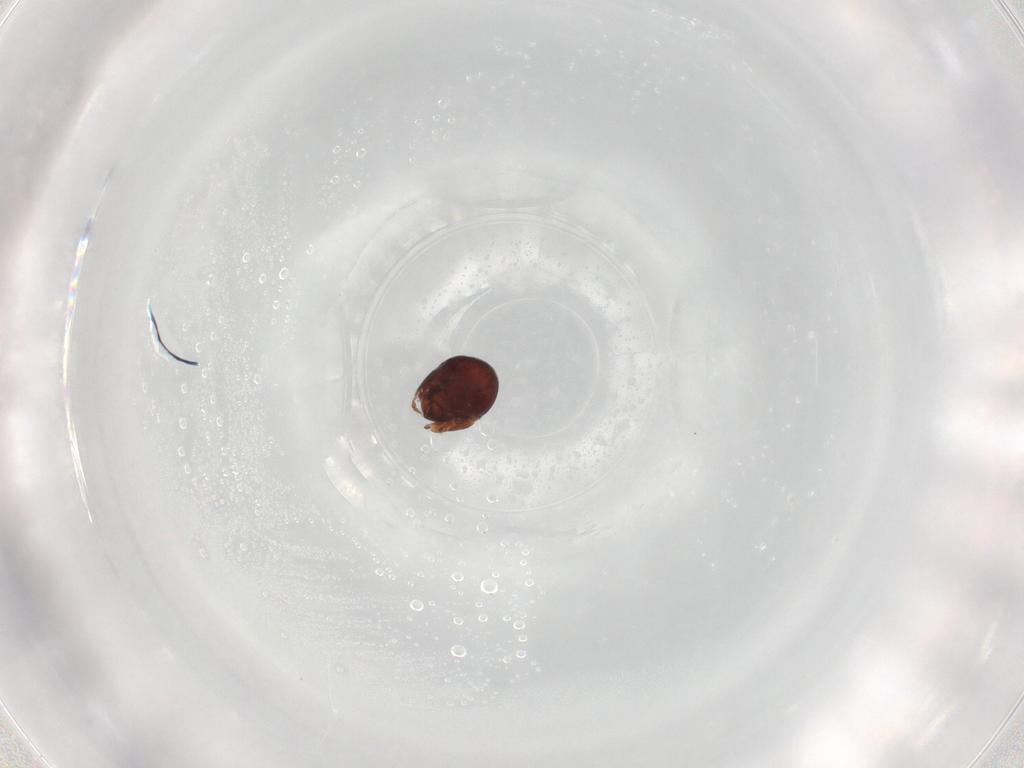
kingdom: Animalia
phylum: Arthropoda
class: Arachnida
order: Sarcoptiformes
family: Galumnidae
